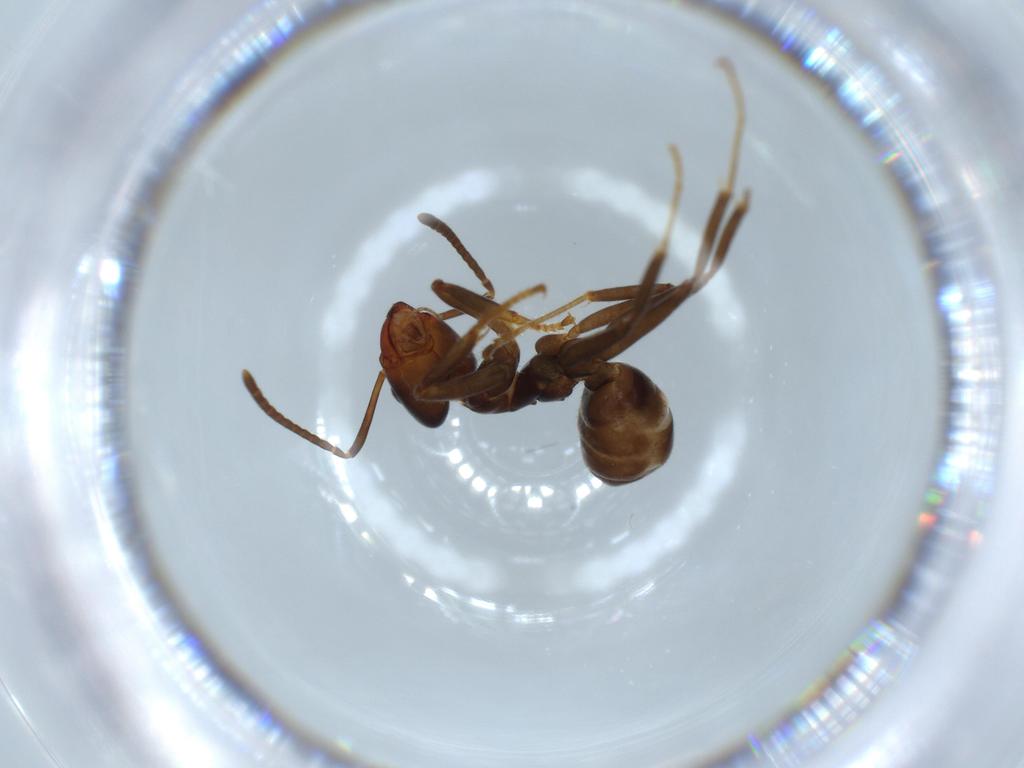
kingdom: Animalia
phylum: Arthropoda
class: Insecta
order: Hymenoptera
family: Formicidae
